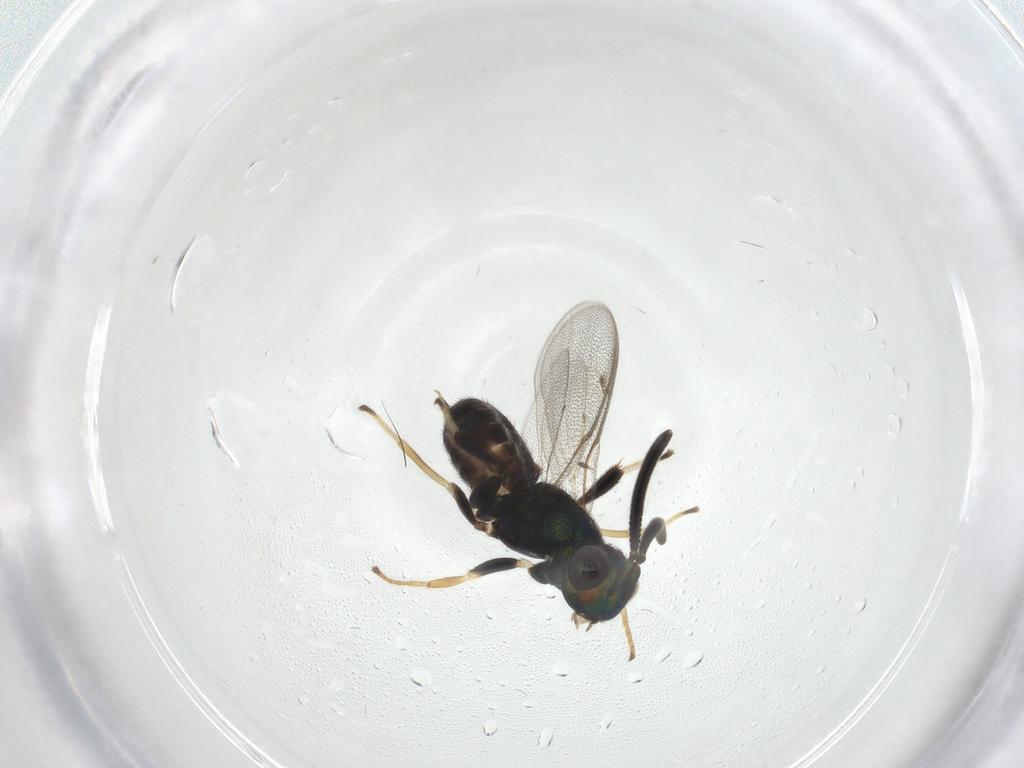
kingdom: Animalia
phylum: Arthropoda
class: Insecta
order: Hymenoptera
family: Eupelmidae
